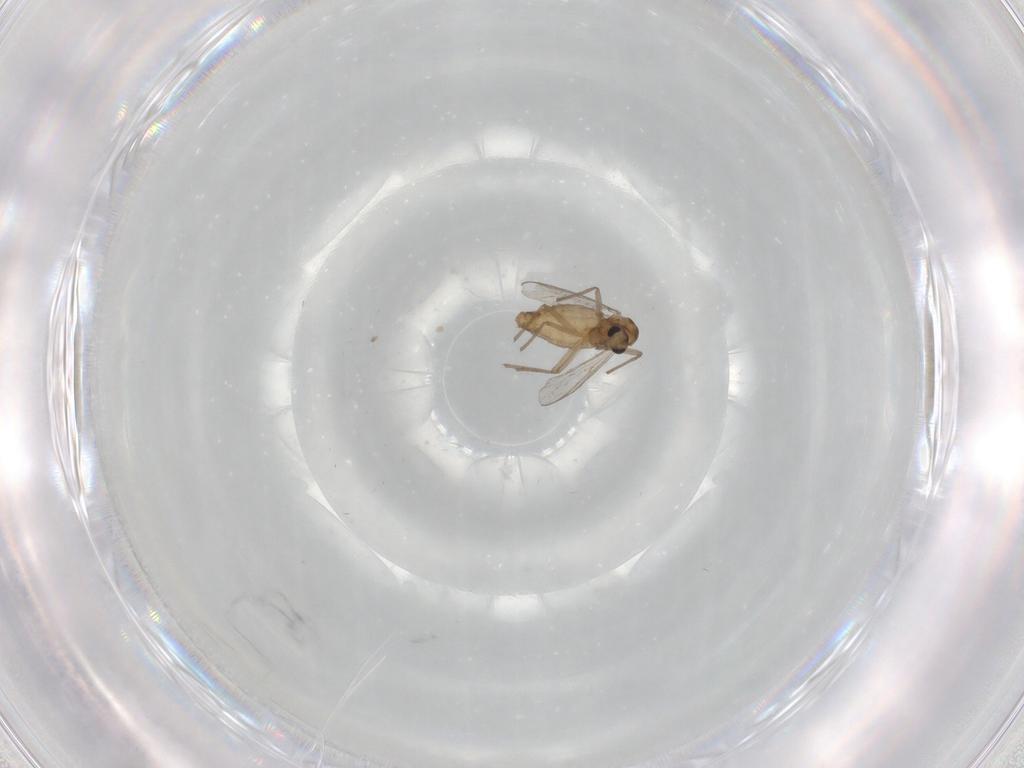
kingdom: Animalia
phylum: Arthropoda
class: Insecta
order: Diptera
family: Chironomidae
